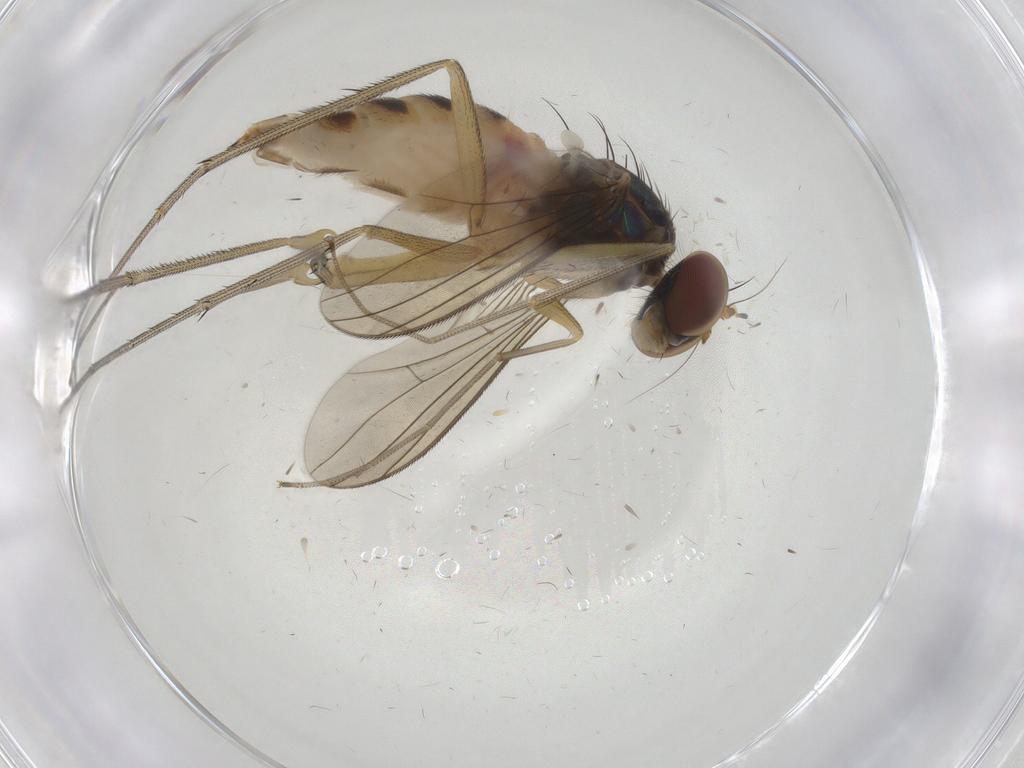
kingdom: Animalia
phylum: Arthropoda
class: Insecta
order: Diptera
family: Dolichopodidae
